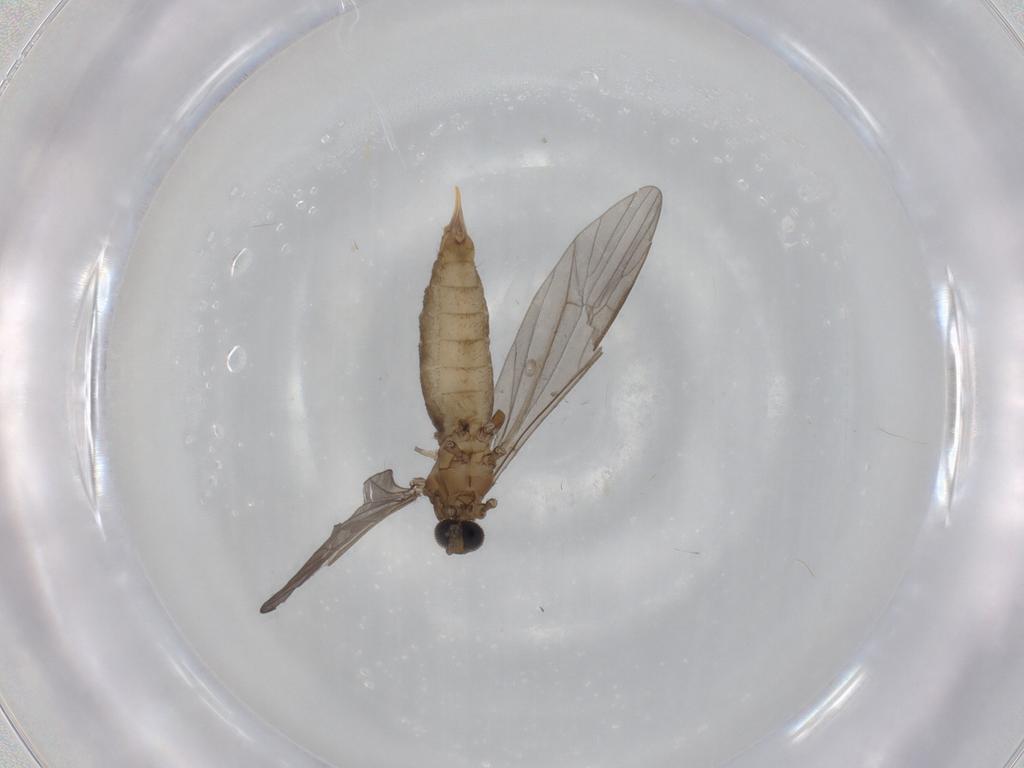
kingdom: Animalia
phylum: Arthropoda
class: Insecta
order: Diptera
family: Limoniidae
